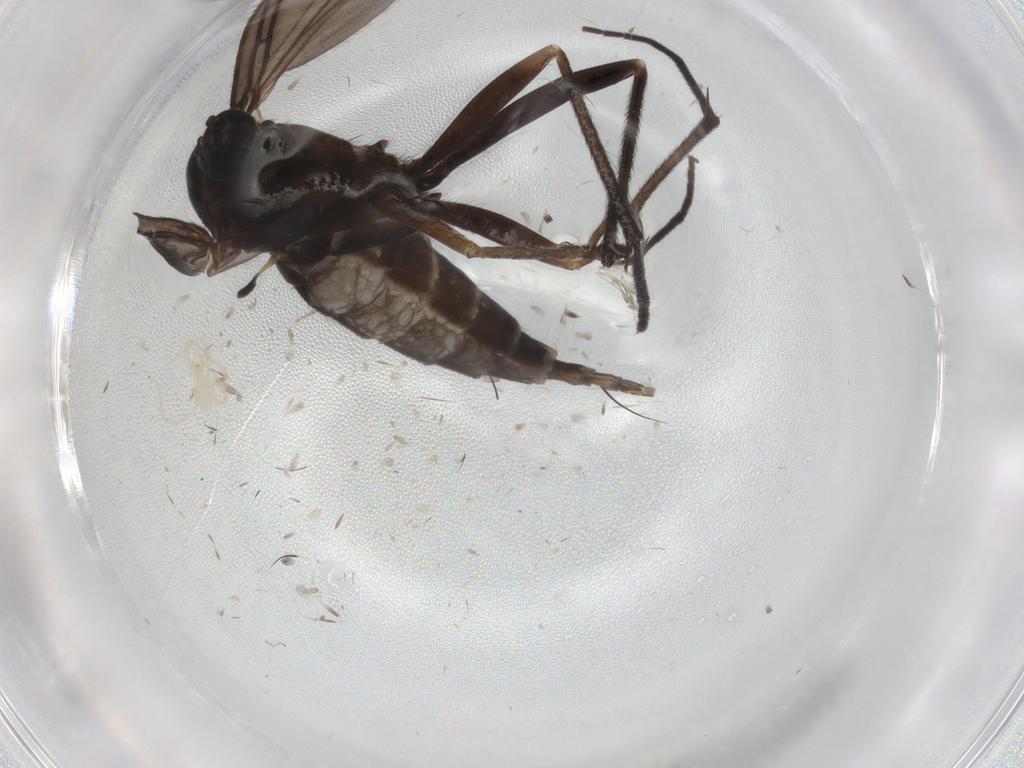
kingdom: Animalia
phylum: Arthropoda
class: Insecta
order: Diptera
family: Sciaridae
